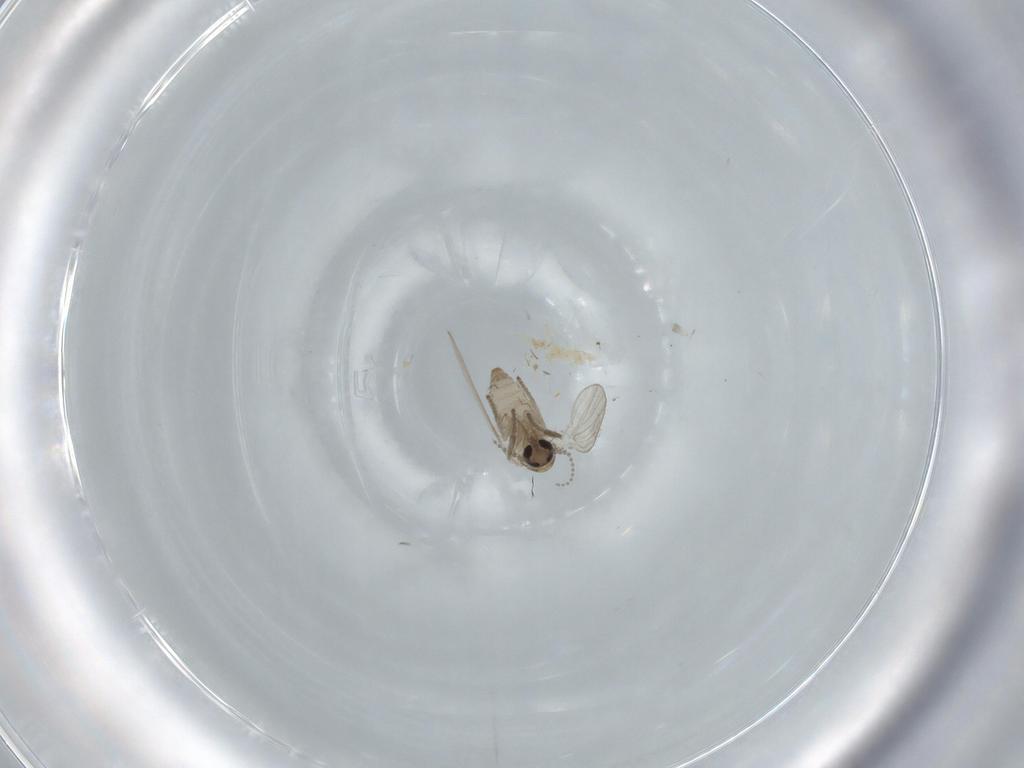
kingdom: Animalia
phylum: Arthropoda
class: Insecta
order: Diptera
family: Psychodidae
